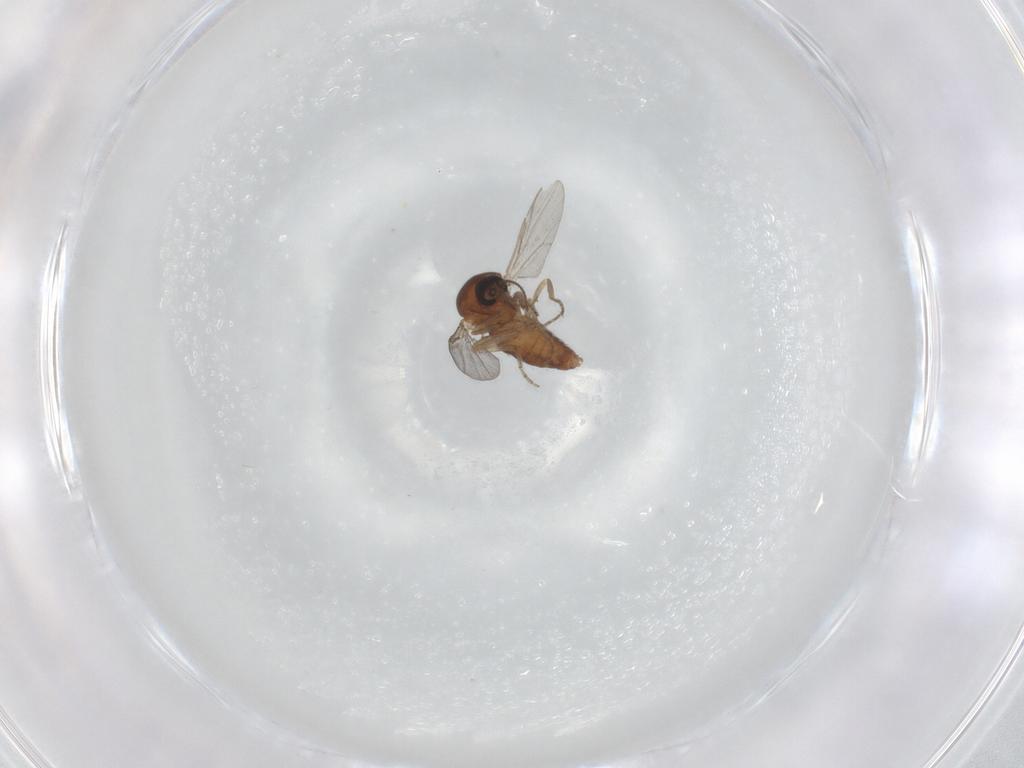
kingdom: Animalia
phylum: Arthropoda
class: Insecta
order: Diptera
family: Ceratopogonidae
